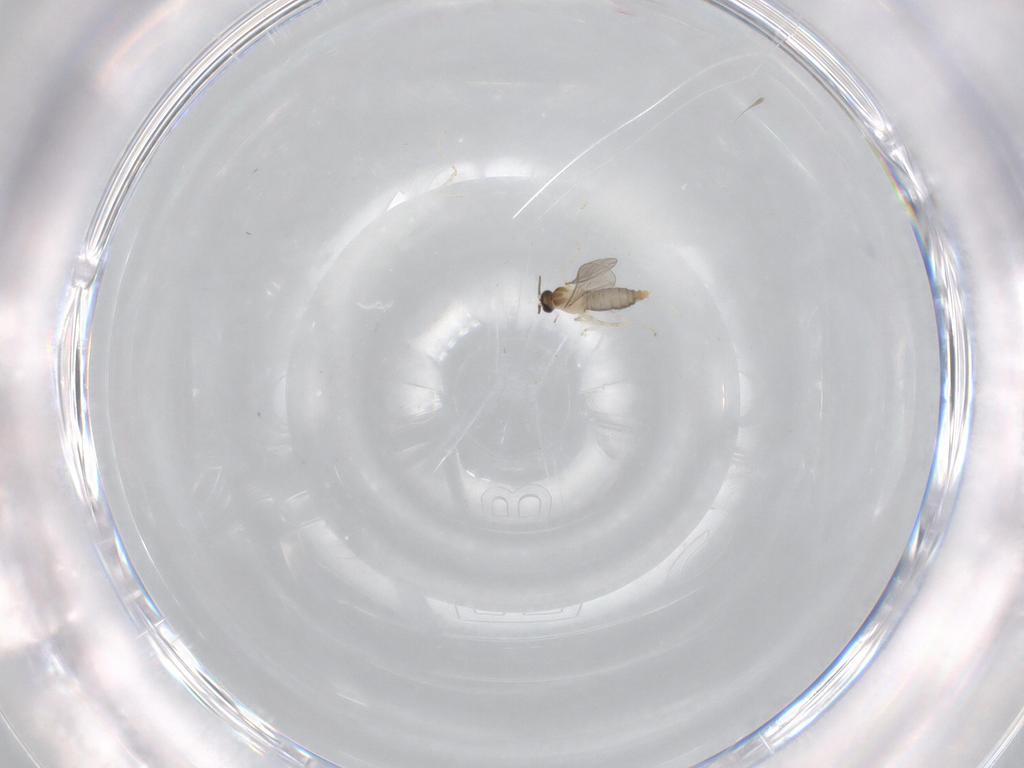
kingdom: Animalia
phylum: Arthropoda
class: Insecta
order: Diptera
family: Cecidomyiidae
